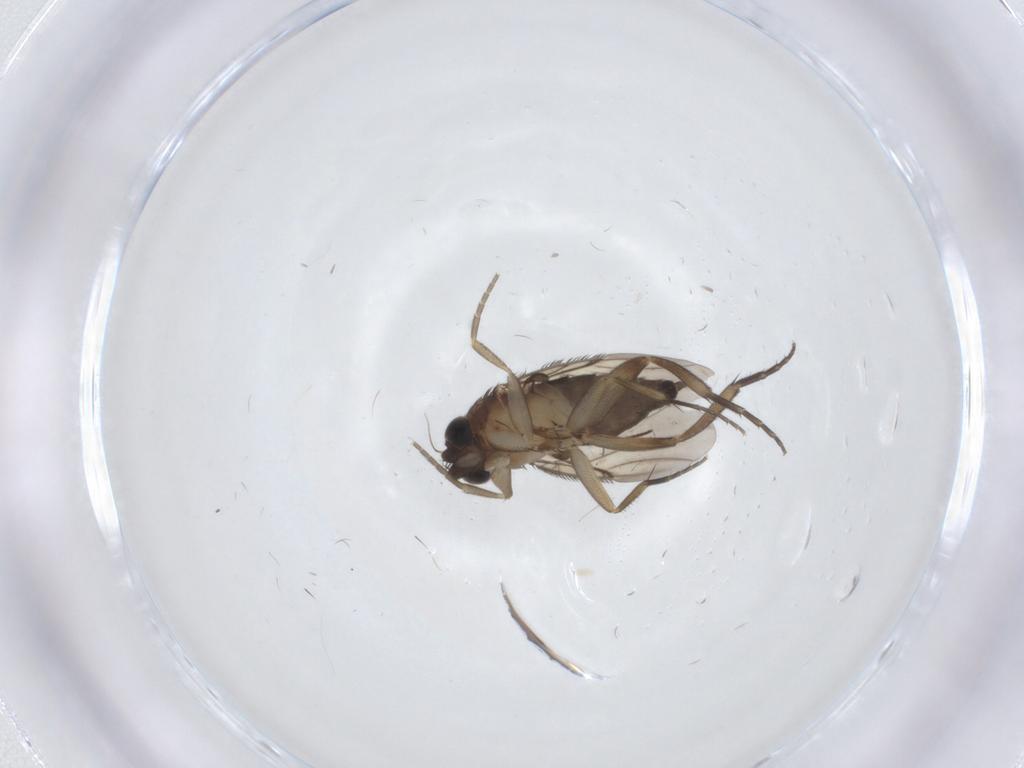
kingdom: Animalia
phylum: Arthropoda
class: Insecta
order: Diptera
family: Phoridae
